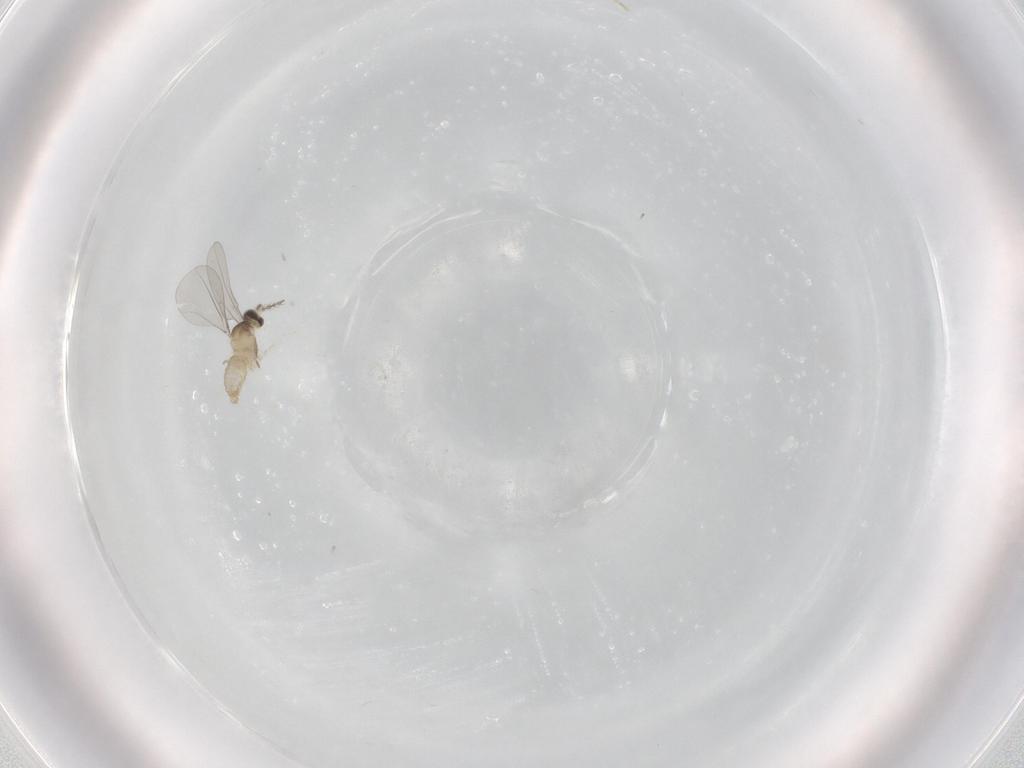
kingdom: Animalia
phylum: Arthropoda
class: Insecta
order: Diptera
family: Cecidomyiidae
